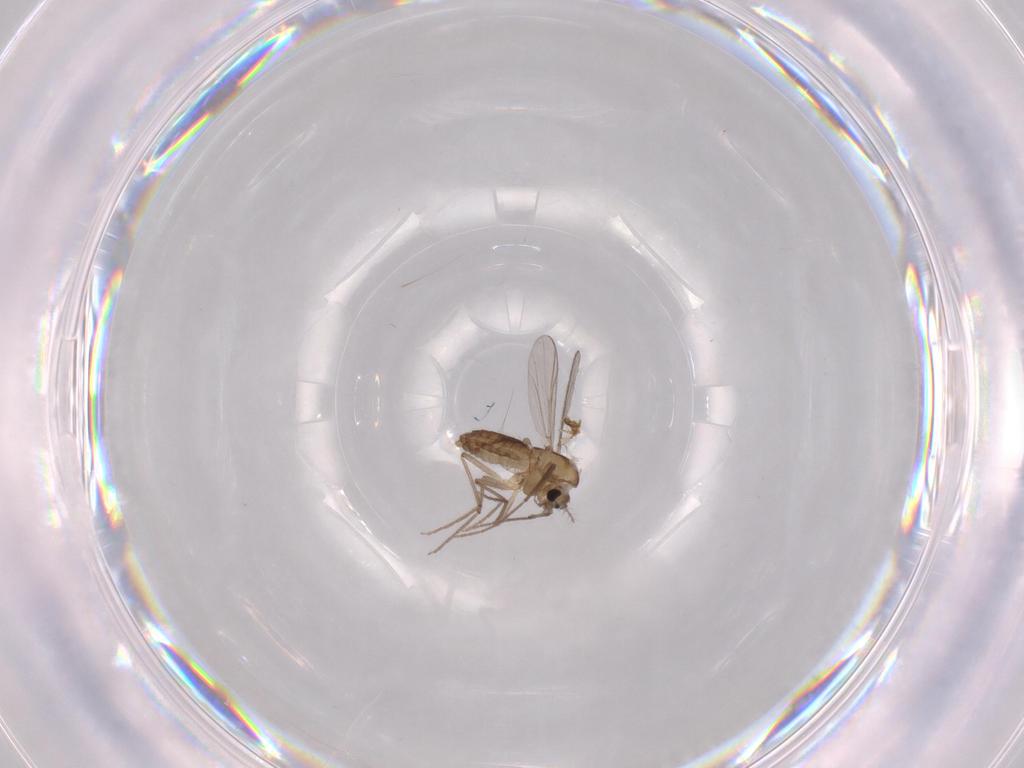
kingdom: Animalia
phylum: Arthropoda
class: Insecta
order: Diptera
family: Chironomidae
